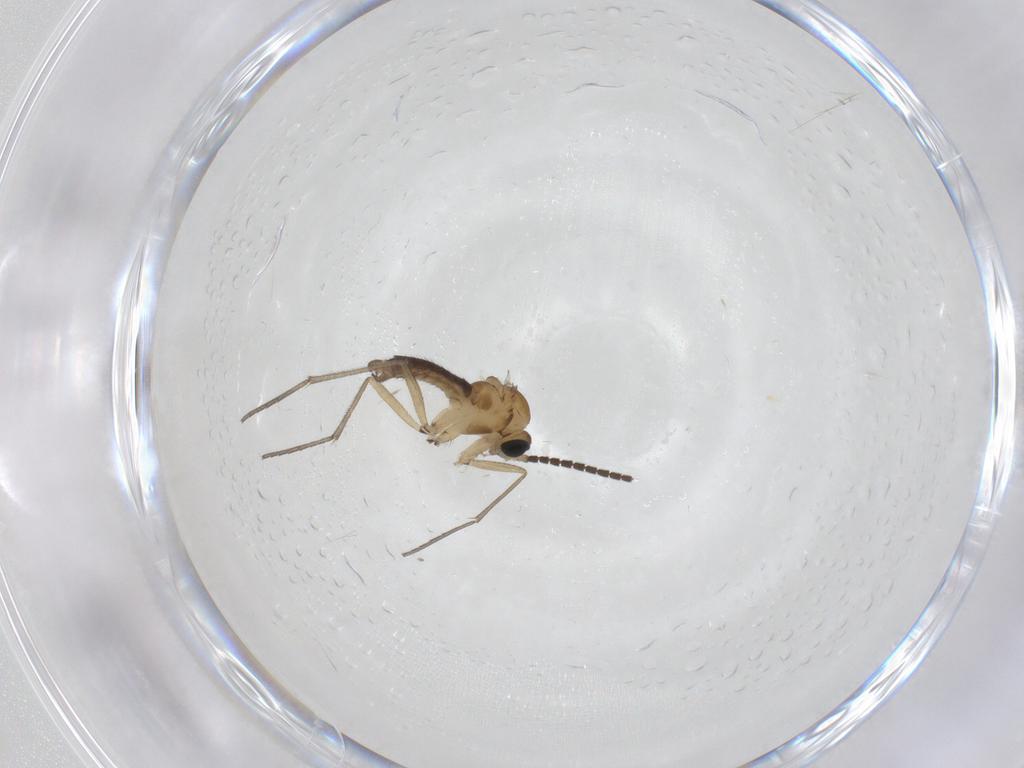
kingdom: Animalia
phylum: Arthropoda
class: Insecta
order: Diptera
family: Sciaridae
